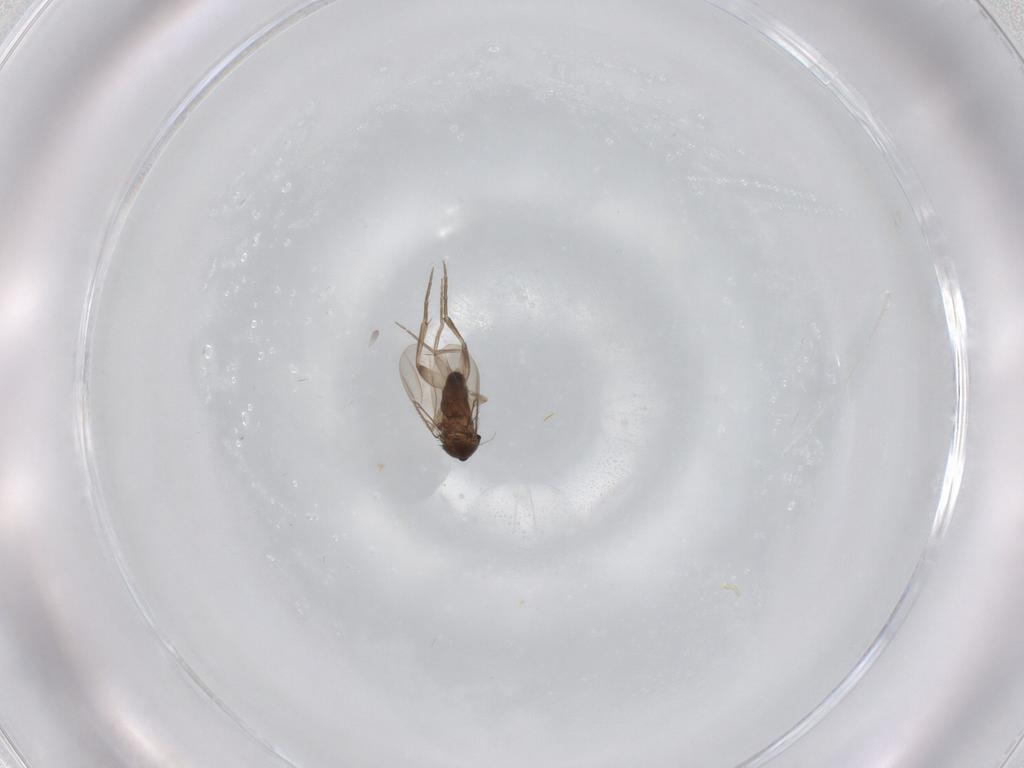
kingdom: Animalia
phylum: Arthropoda
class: Insecta
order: Diptera
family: Phoridae
